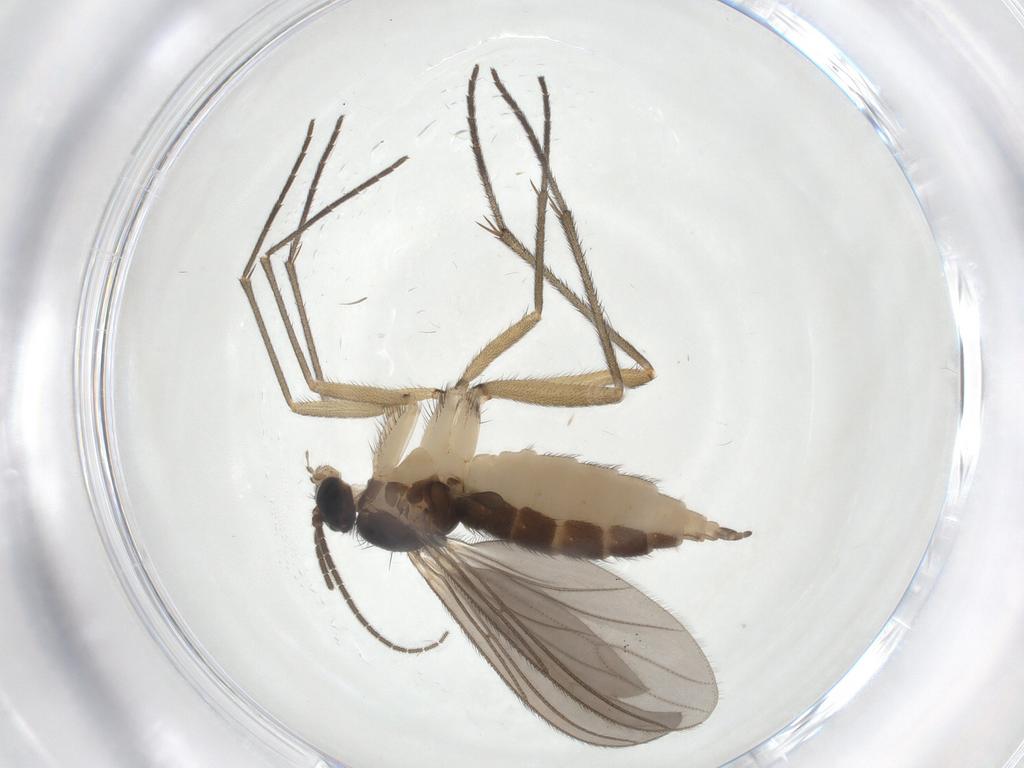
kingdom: Animalia
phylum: Arthropoda
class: Insecta
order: Diptera
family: Sciaridae
